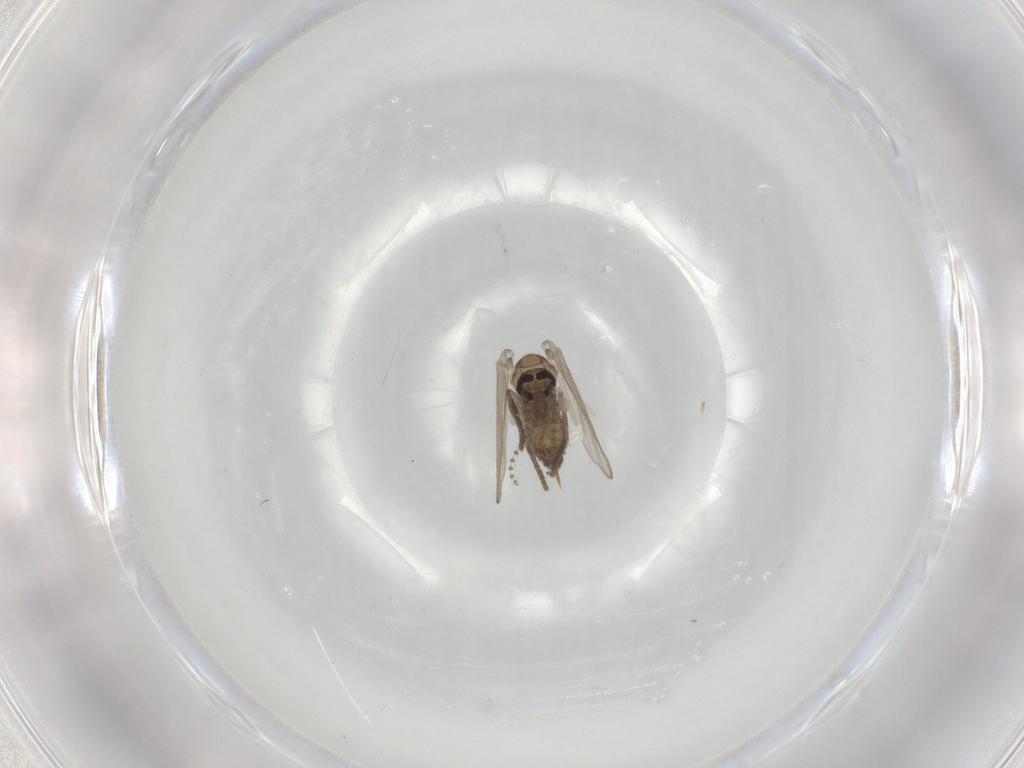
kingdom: Animalia
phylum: Arthropoda
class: Insecta
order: Diptera
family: Psychodidae
